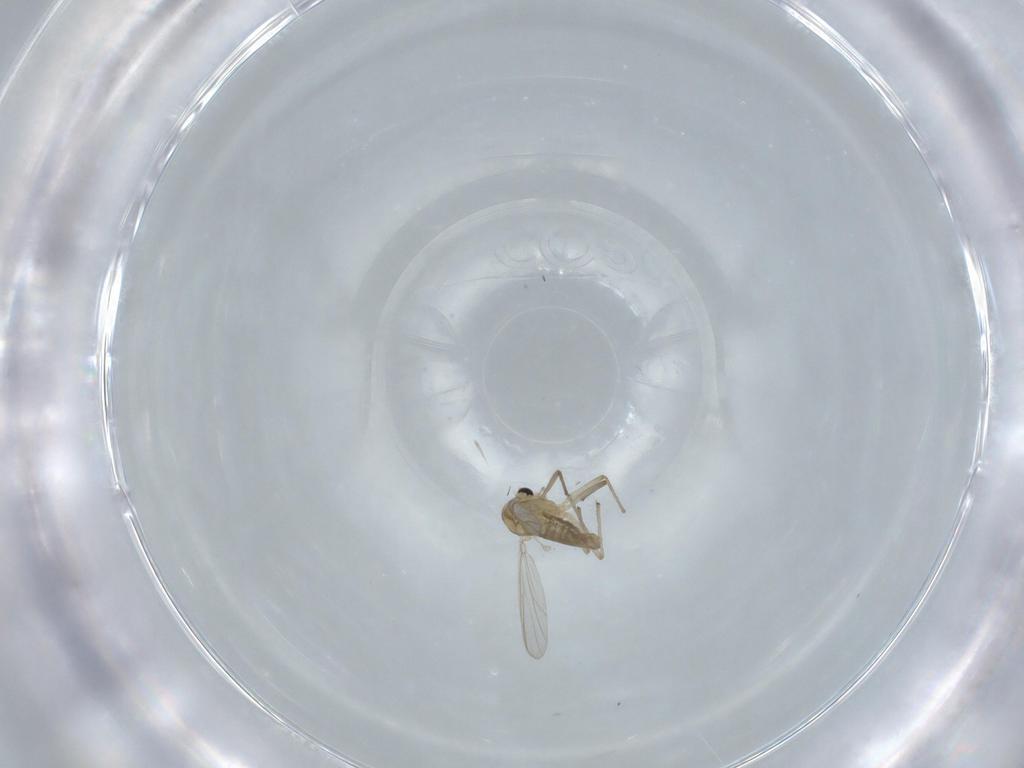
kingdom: Animalia
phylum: Arthropoda
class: Insecta
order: Diptera
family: Chironomidae
